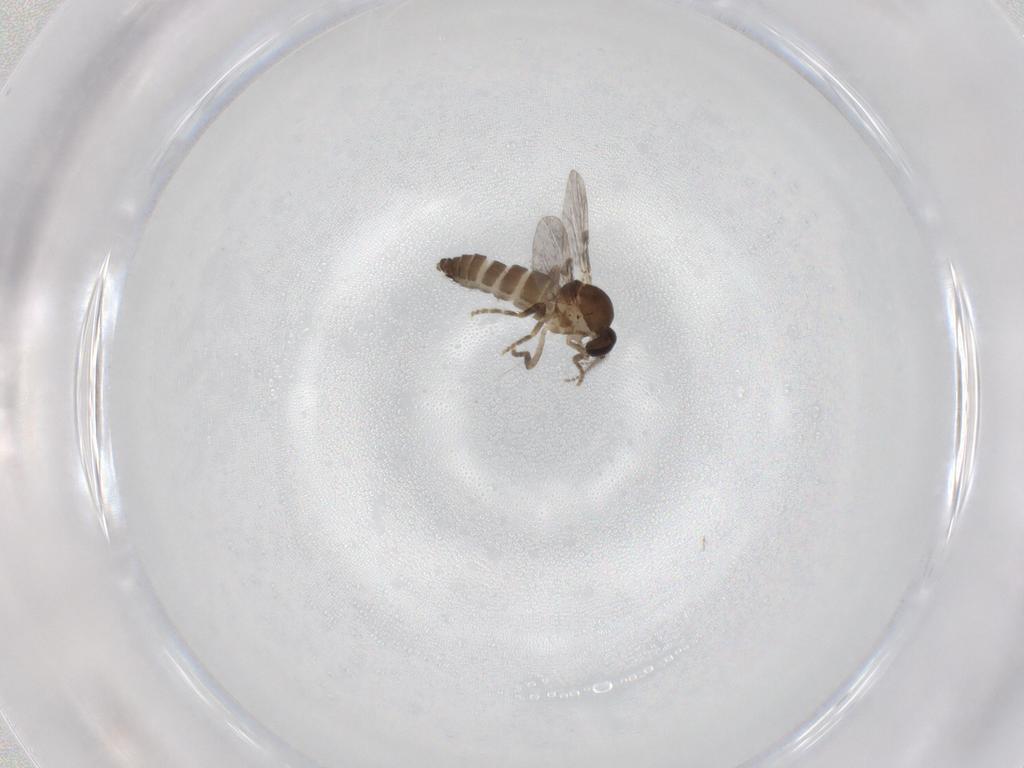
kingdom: Animalia
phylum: Arthropoda
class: Insecta
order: Diptera
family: Ceratopogonidae
